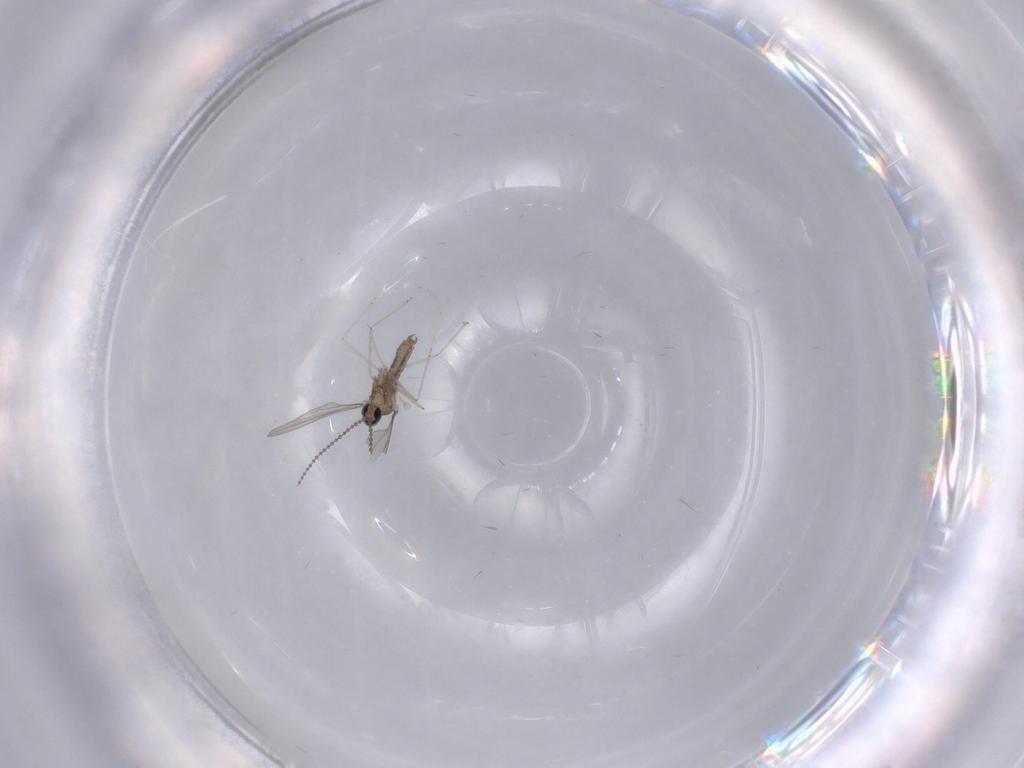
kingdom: Animalia
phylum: Arthropoda
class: Insecta
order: Diptera
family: Cecidomyiidae
